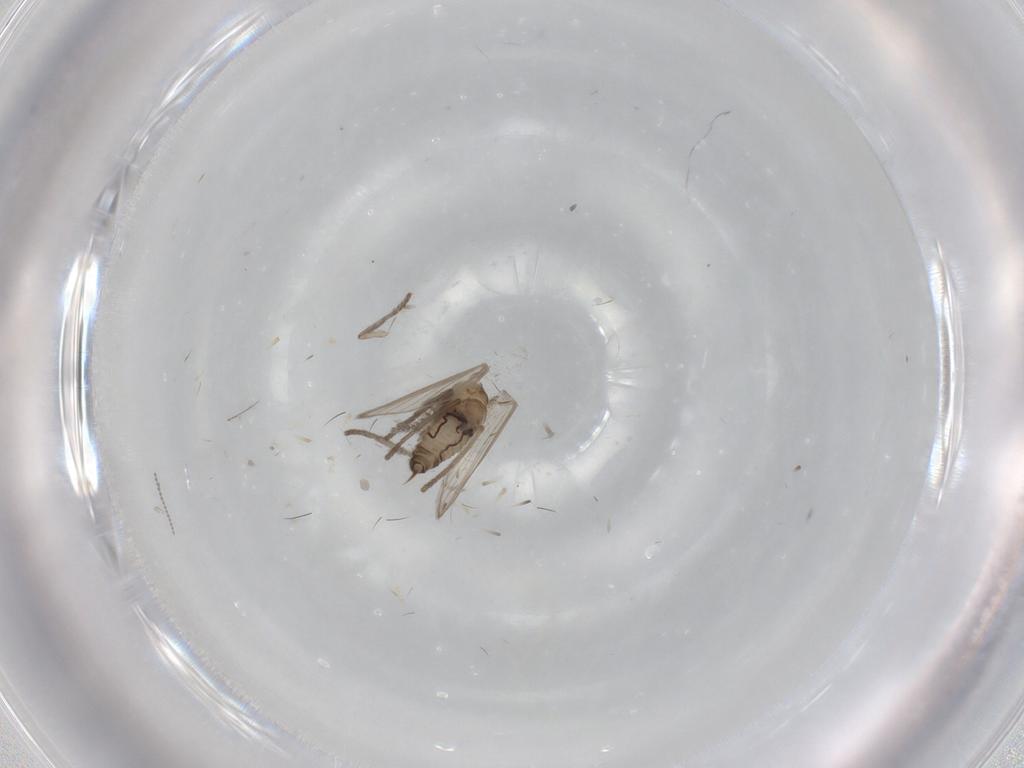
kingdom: Animalia
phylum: Arthropoda
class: Insecta
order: Diptera
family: Psychodidae
